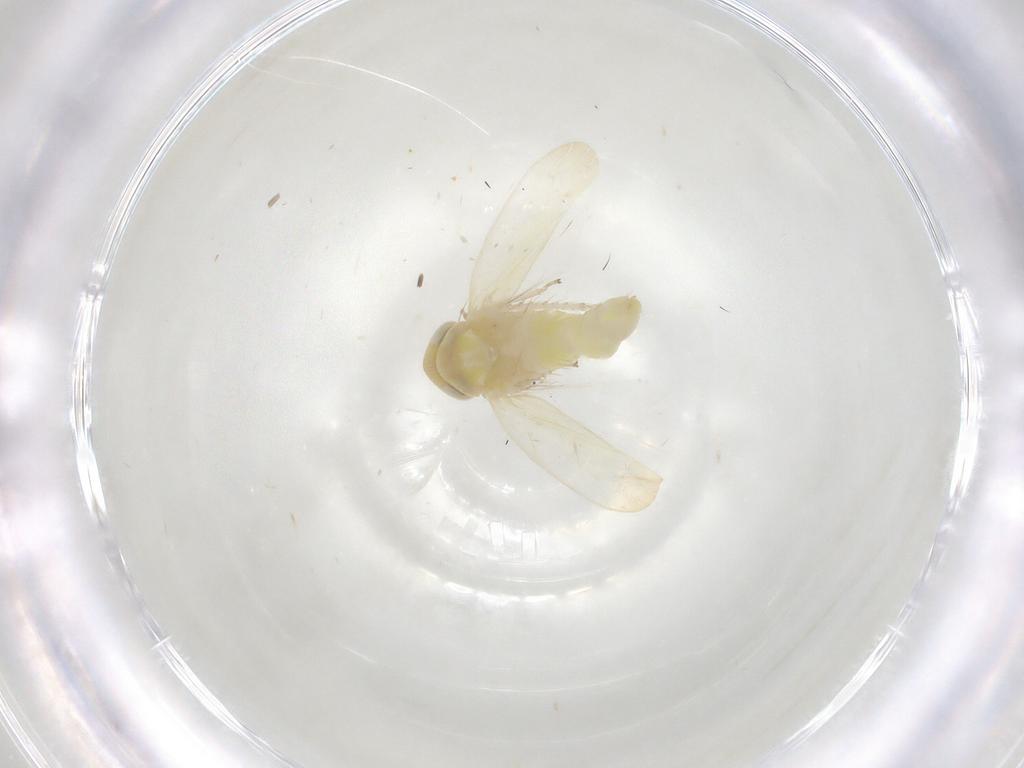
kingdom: Animalia
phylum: Arthropoda
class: Insecta
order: Hemiptera
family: Cicadellidae
